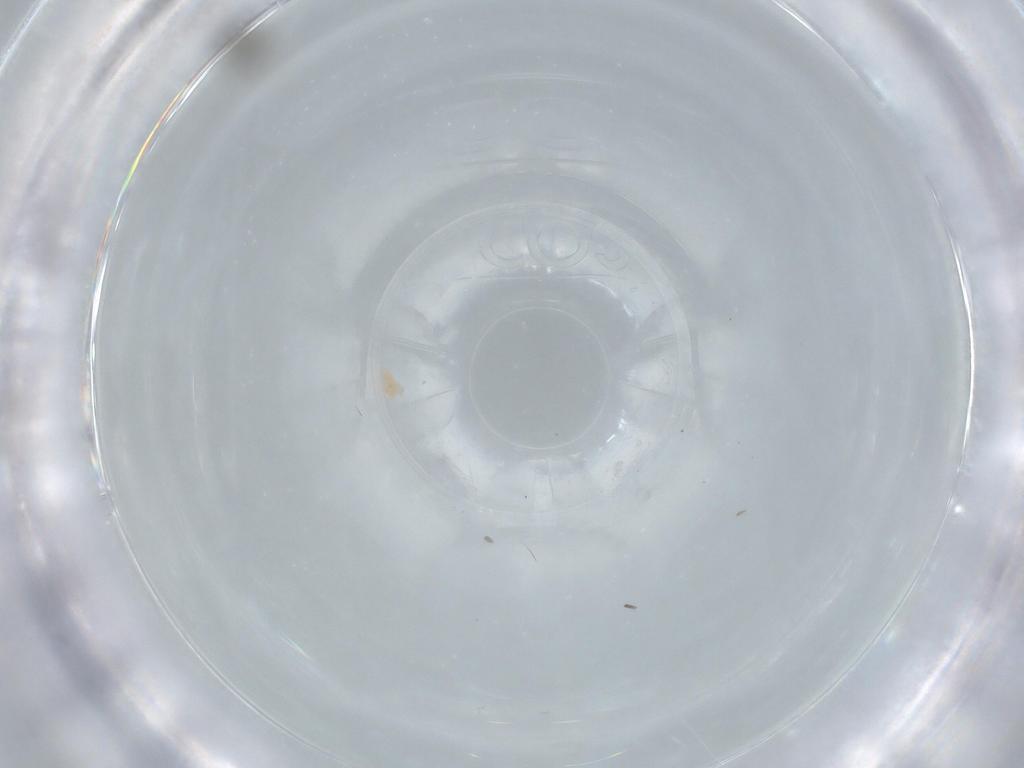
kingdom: Animalia
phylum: Arthropoda
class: Insecta
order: Hymenoptera
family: Platygastridae
